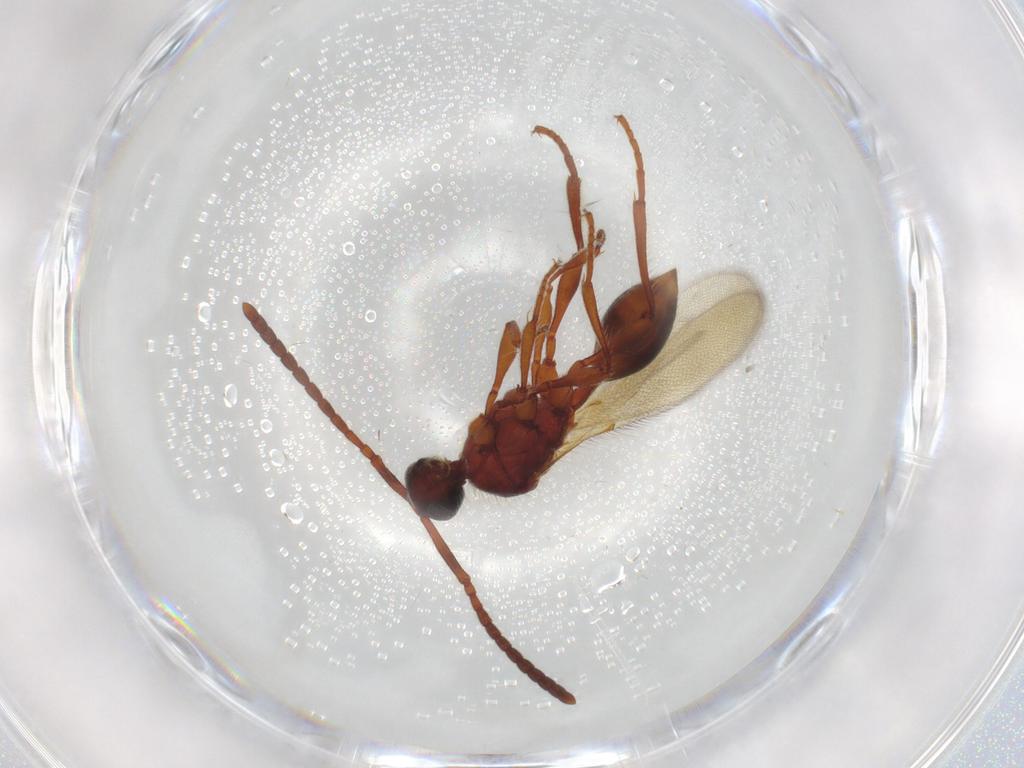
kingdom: Animalia
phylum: Arthropoda
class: Insecta
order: Hymenoptera
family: Diapriidae
